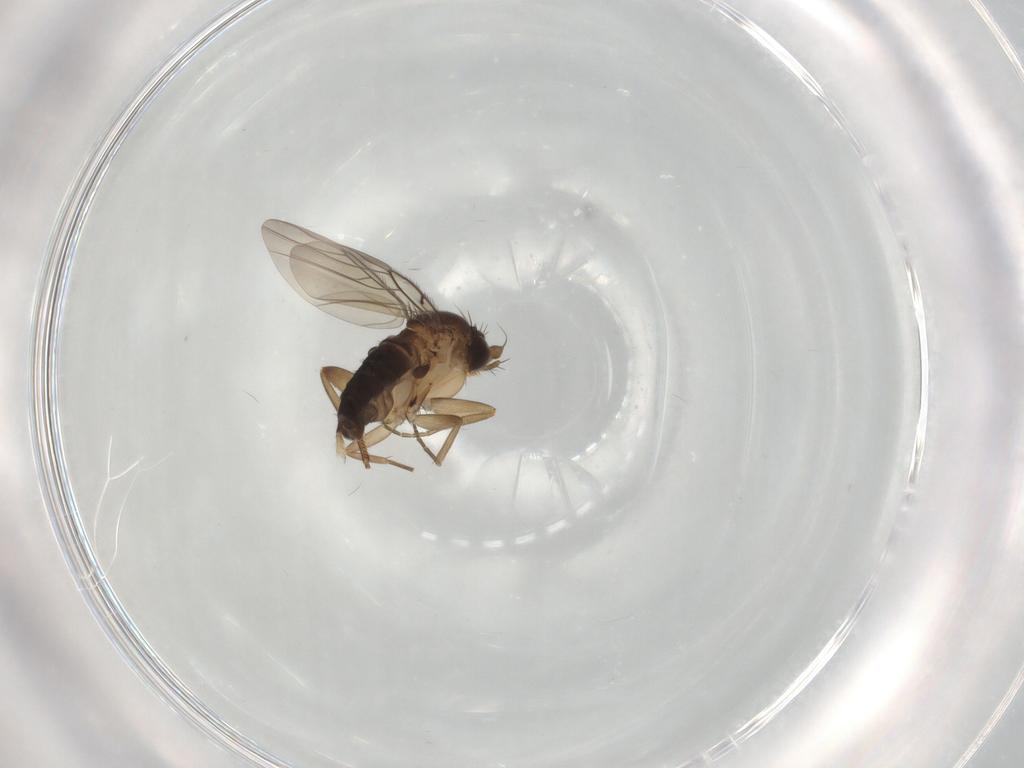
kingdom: Animalia
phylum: Arthropoda
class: Insecta
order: Diptera
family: Phoridae
